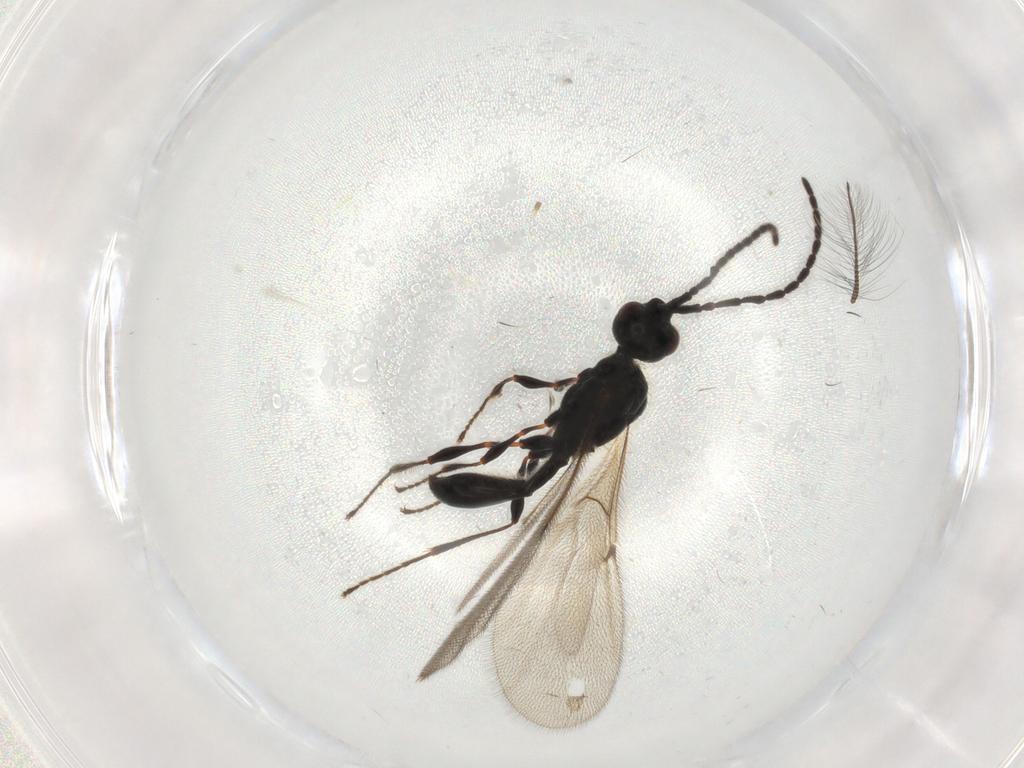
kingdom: Animalia
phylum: Arthropoda
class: Insecta
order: Hymenoptera
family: Diapriidae
